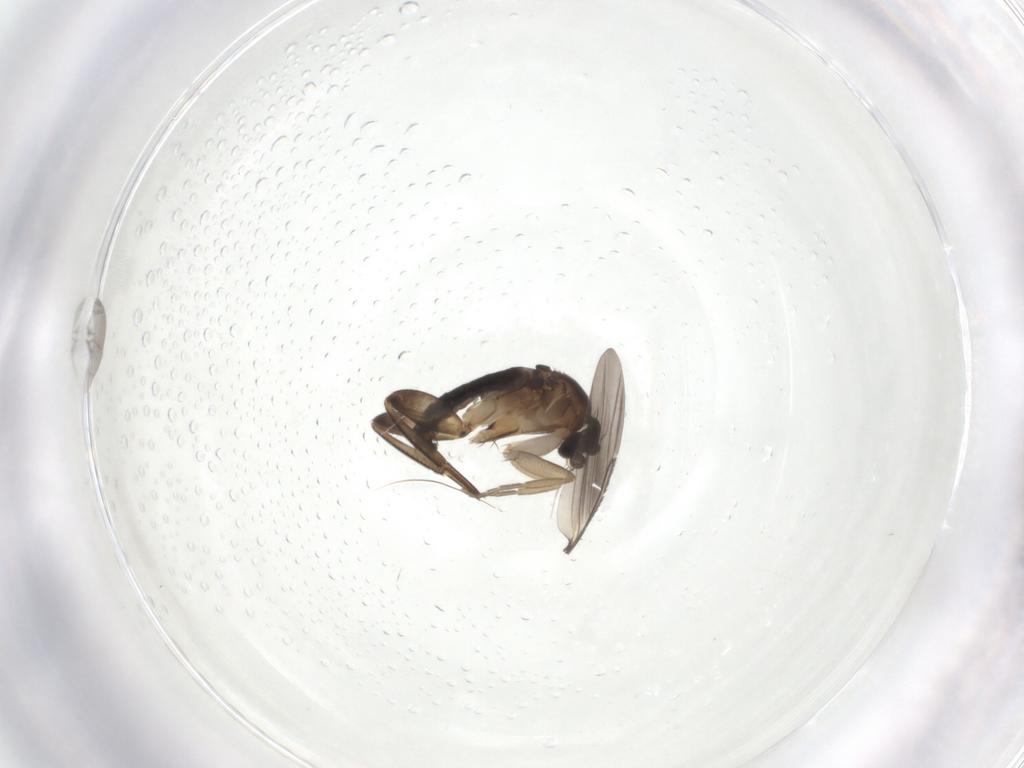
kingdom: Animalia
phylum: Arthropoda
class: Insecta
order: Diptera
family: Phoridae
